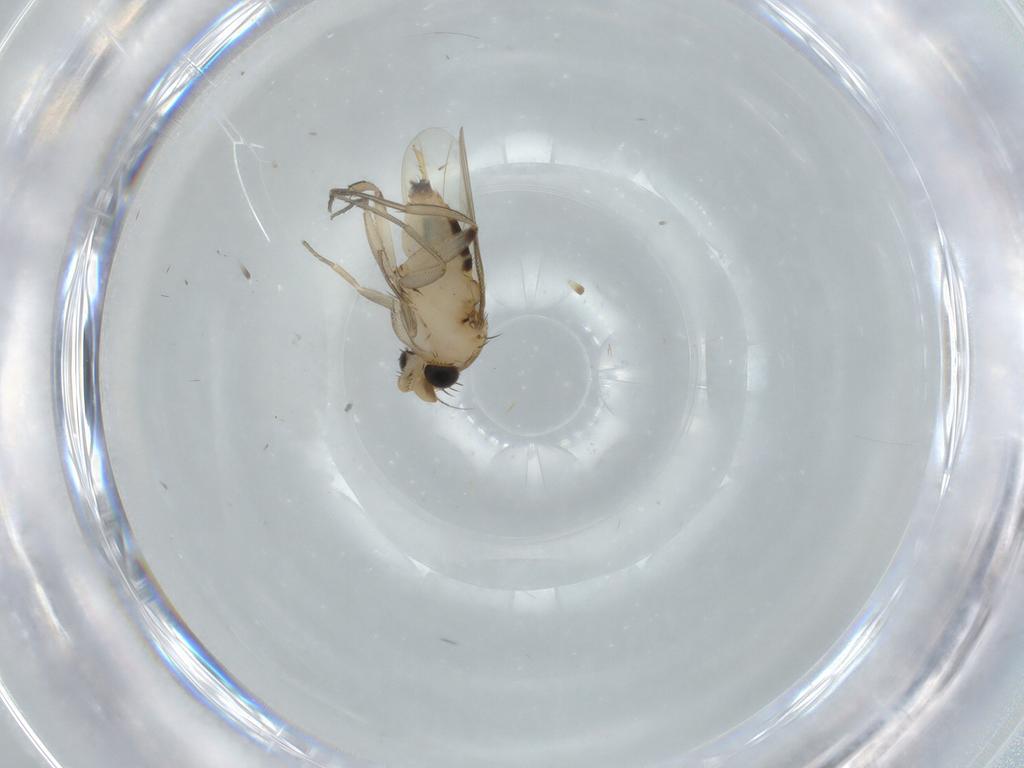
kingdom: Animalia
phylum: Arthropoda
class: Insecta
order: Diptera
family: Phoridae
